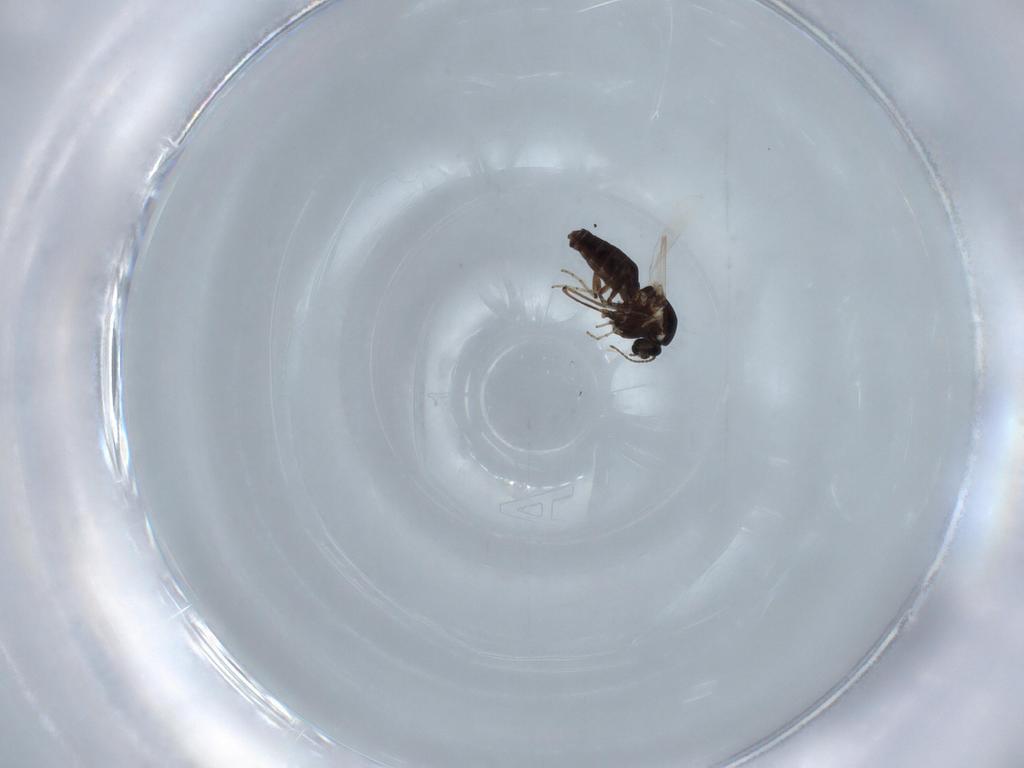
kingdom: Animalia
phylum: Arthropoda
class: Insecta
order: Diptera
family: Ceratopogonidae
